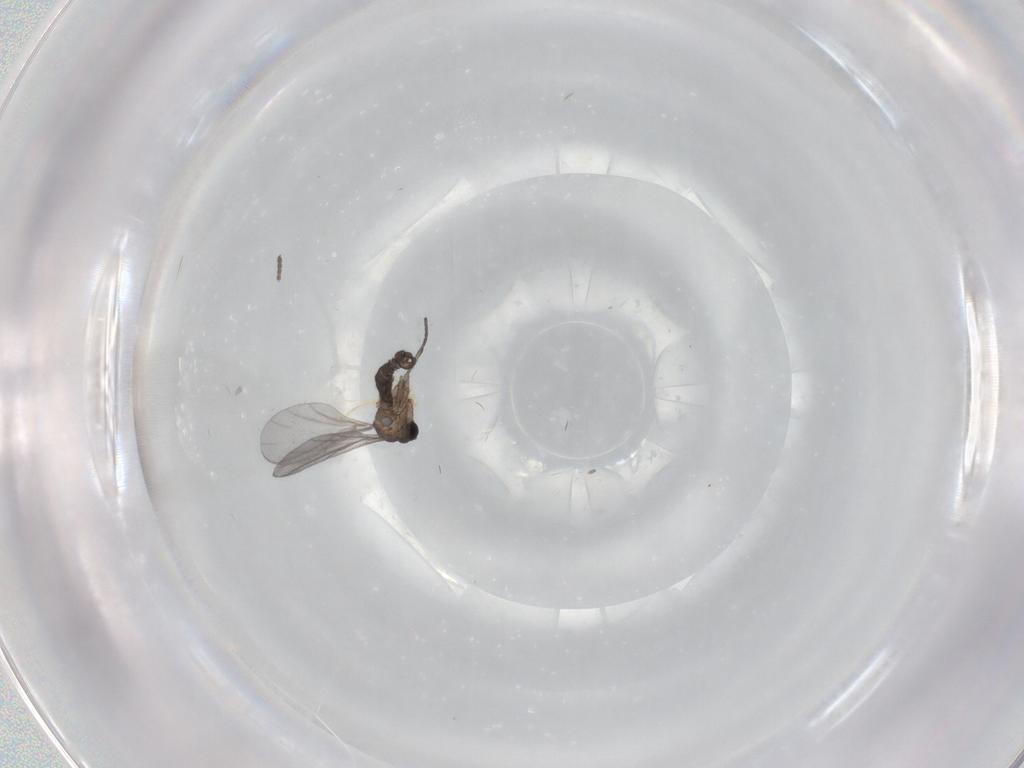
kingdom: Animalia
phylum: Arthropoda
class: Insecta
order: Diptera
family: Sciaridae
